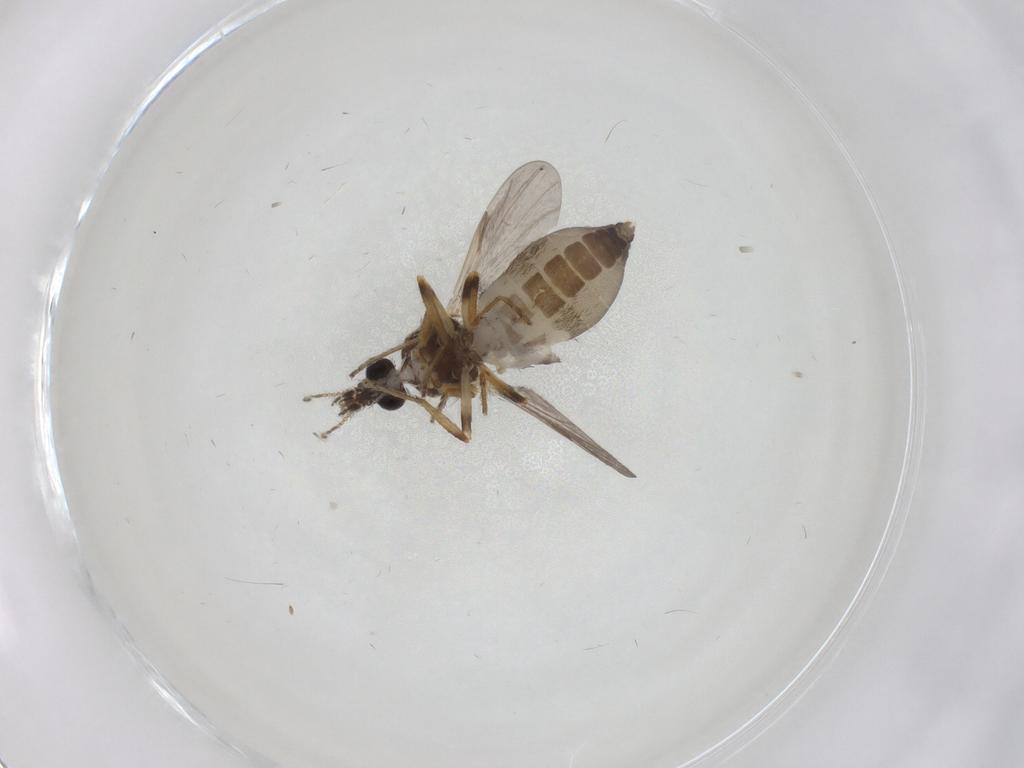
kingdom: Animalia
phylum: Arthropoda
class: Insecta
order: Diptera
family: Ceratopogonidae
